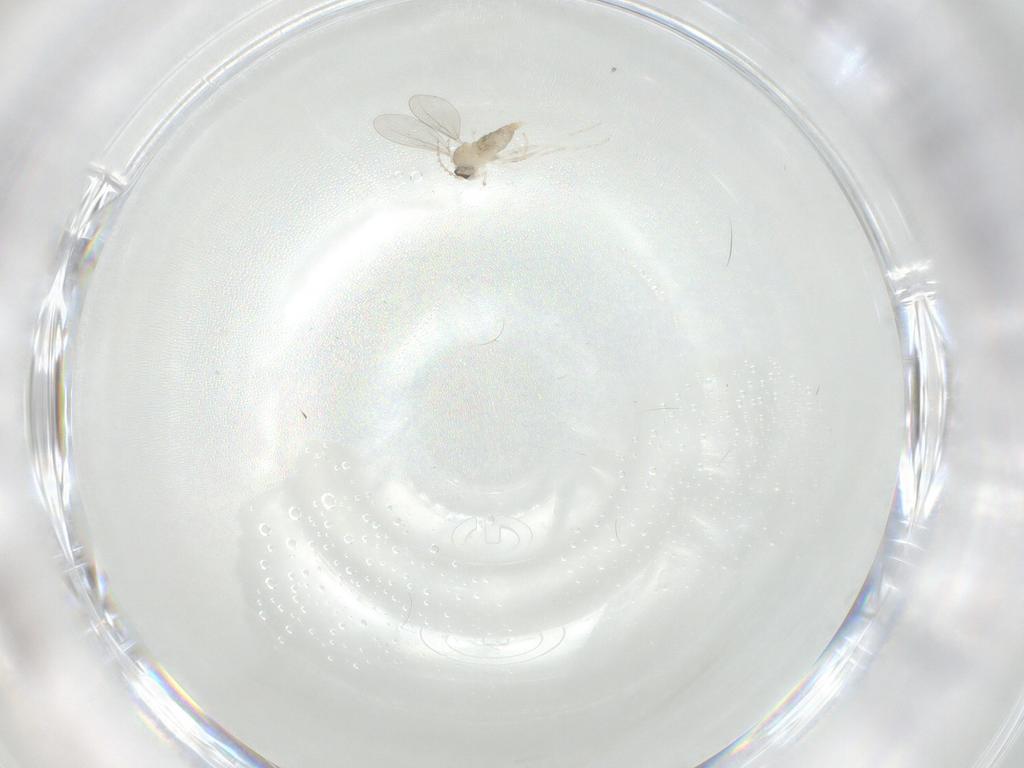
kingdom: Animalia
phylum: Arthropoda
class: Insecta
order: Diptera
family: Cecidomyiidae
